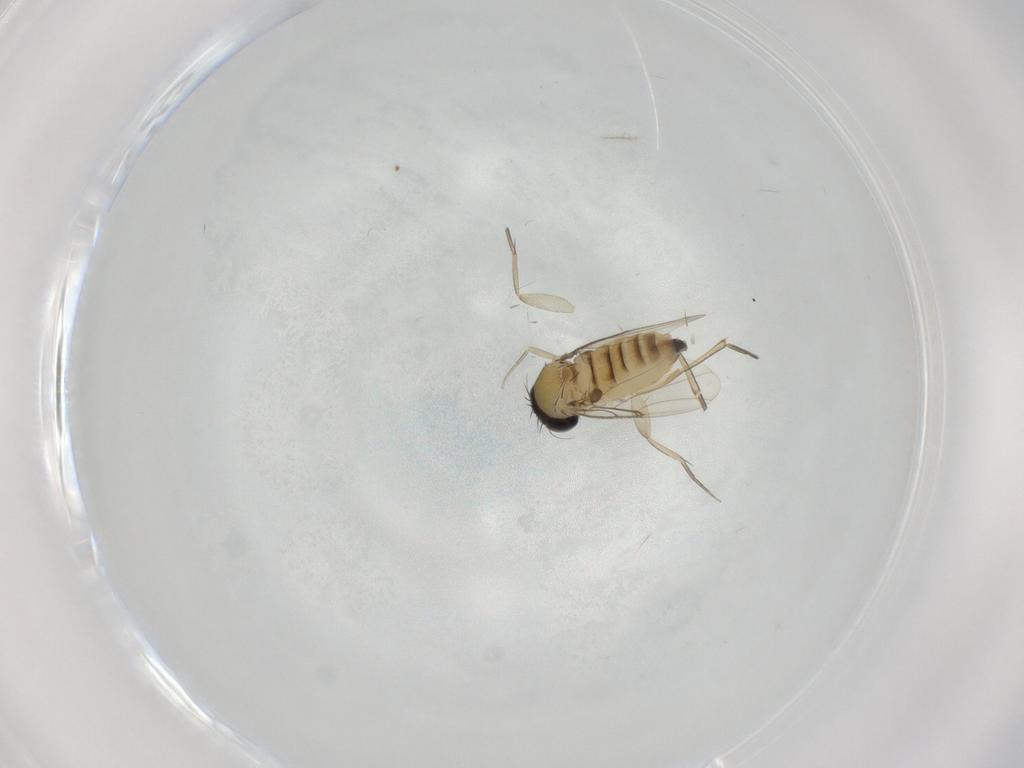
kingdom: Animalia
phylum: Arthropoda
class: Insecta
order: Diptera
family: Phoridae
